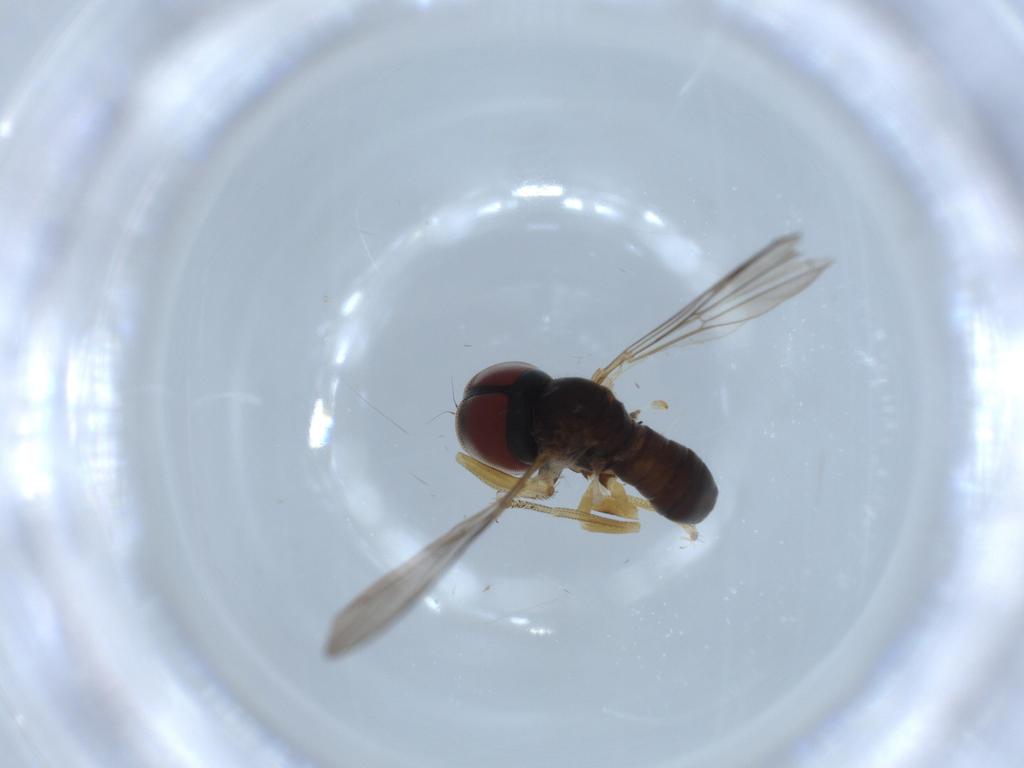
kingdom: Animalia
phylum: Arthropoda
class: Insecta
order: Diptera
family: Pipunculidae
